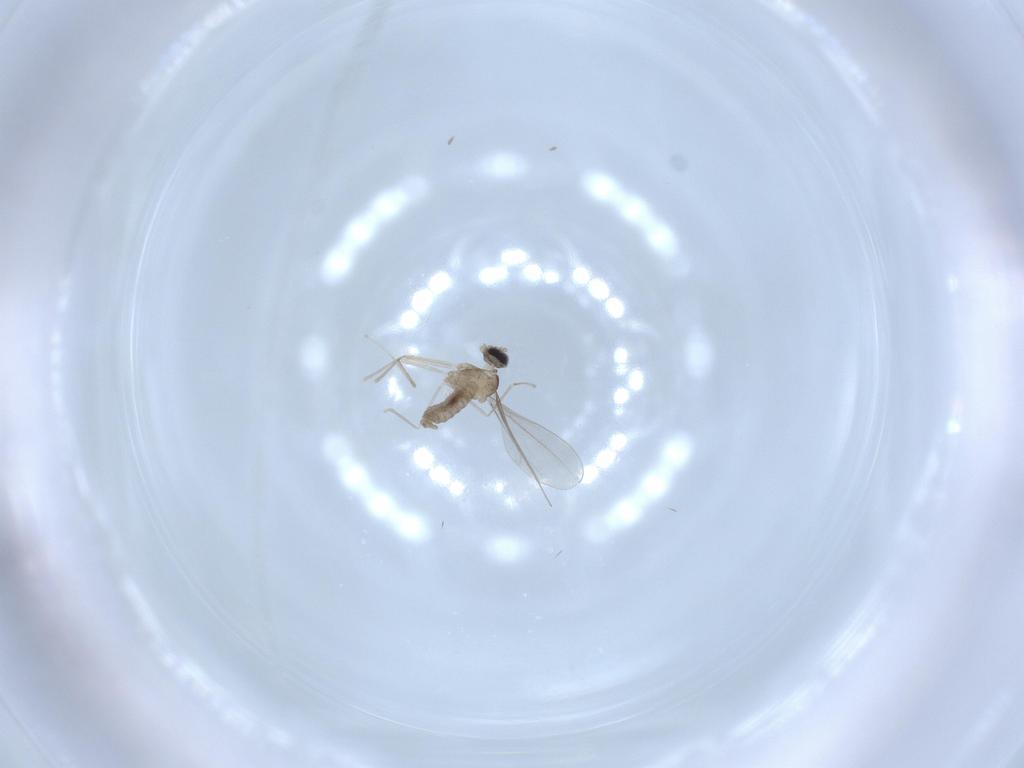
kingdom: Animalia
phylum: Arthropoda
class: Insecta
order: Diptera
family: Cecidomyiidae
